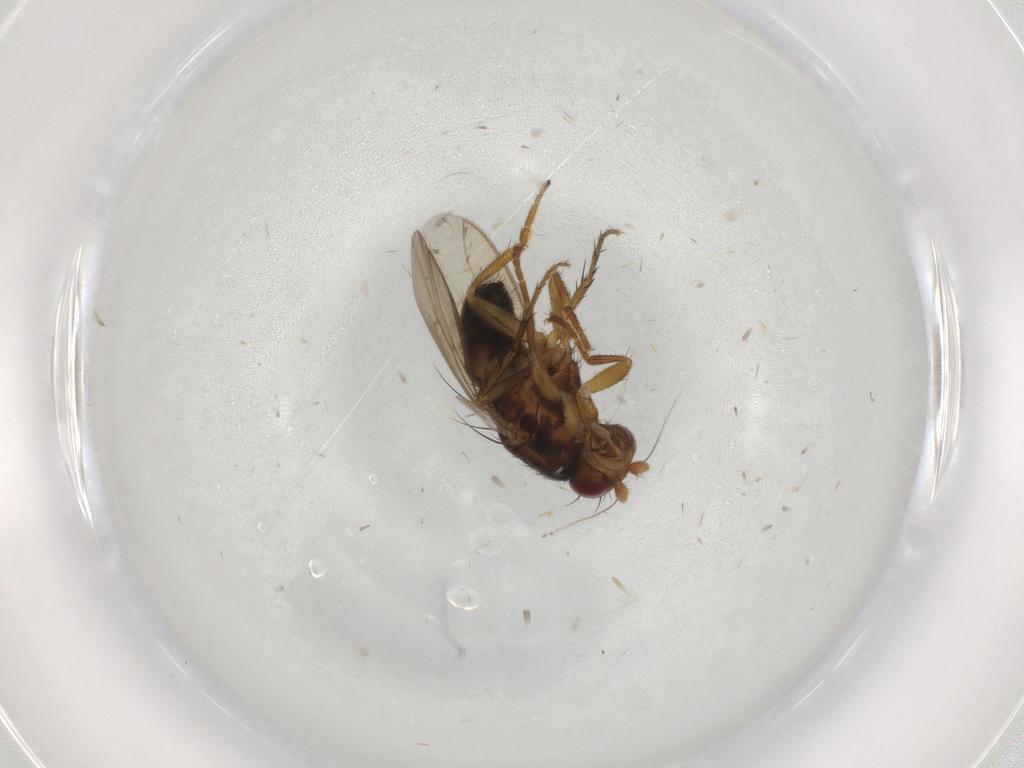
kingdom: Animalia
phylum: Arthropoda
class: Insecta
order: Diptera
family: Sphaeroceridae
